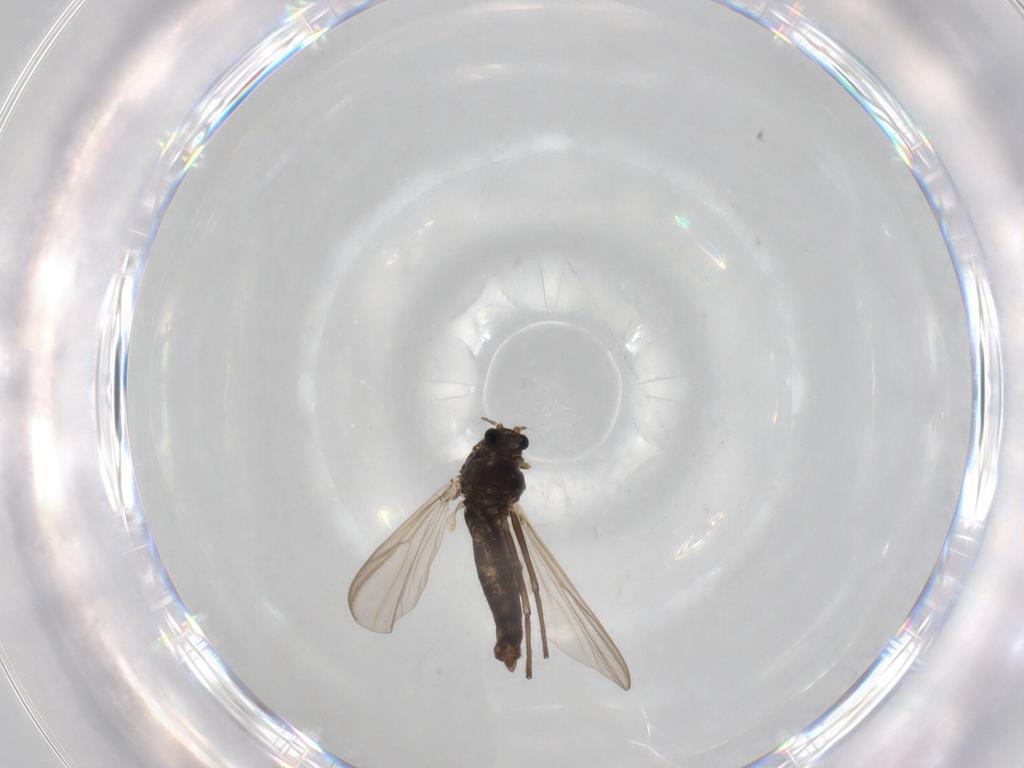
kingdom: Animalia
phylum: Arthropoda
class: Insecta
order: Diptera
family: Chironomidae
